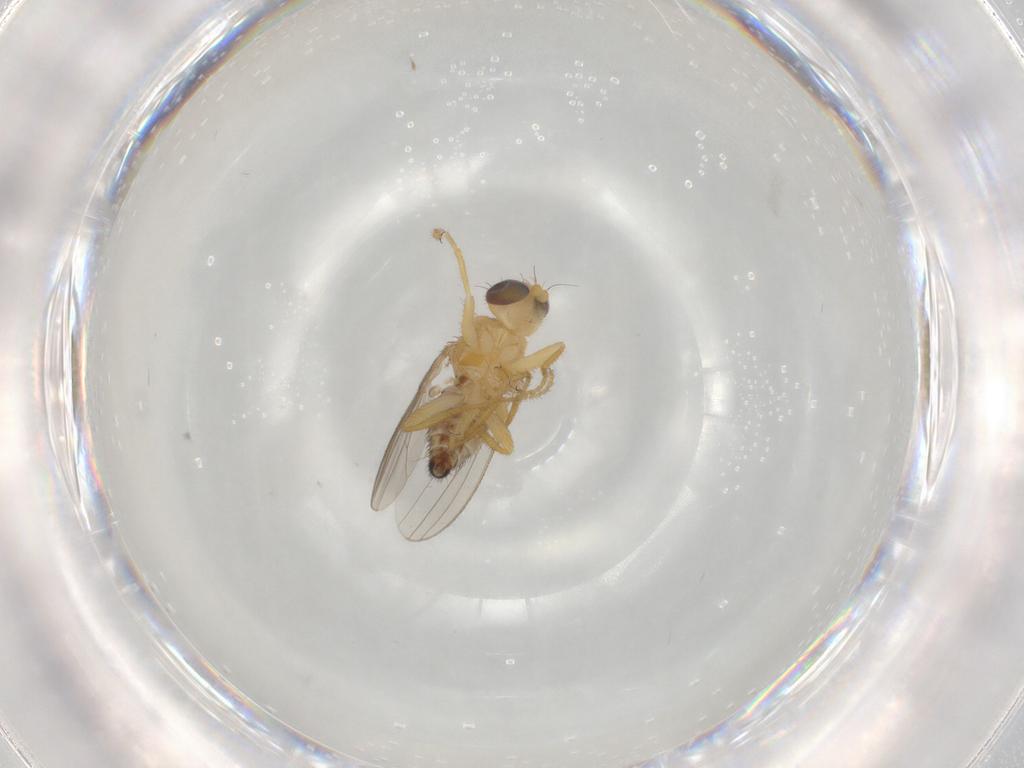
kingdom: Animalia
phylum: Arthropoda
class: Insecta
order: Diptera
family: Chyromyidae
